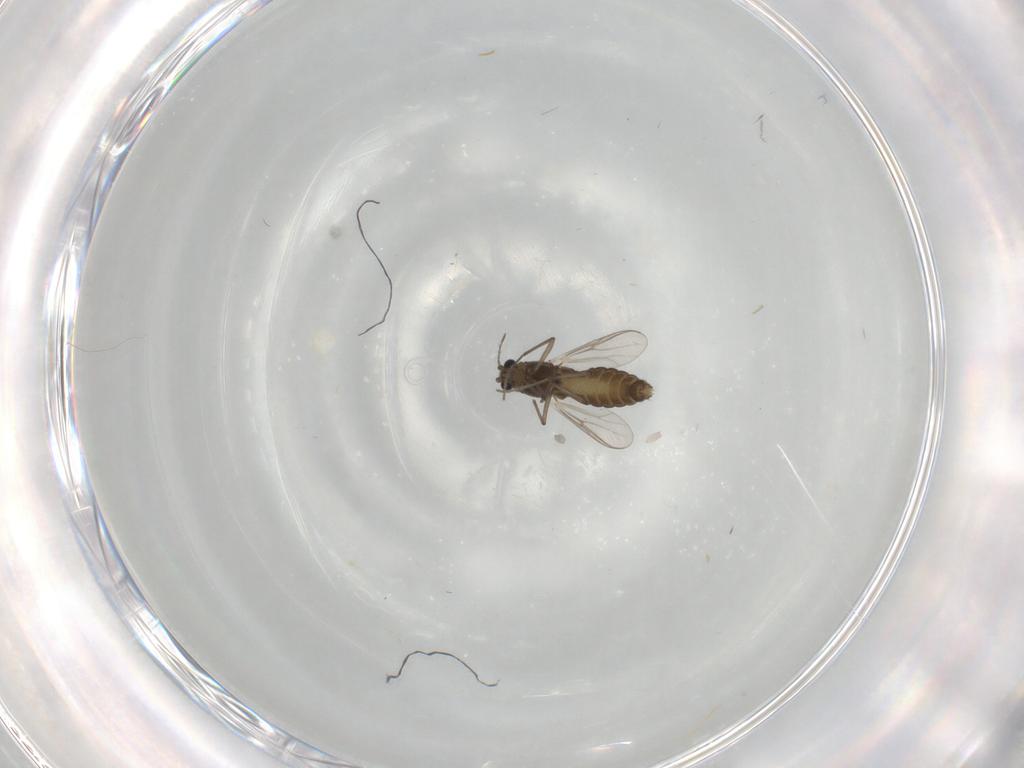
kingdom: Animalia
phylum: Arthropoda
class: Insecta
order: Diptera
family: Chironomidae
